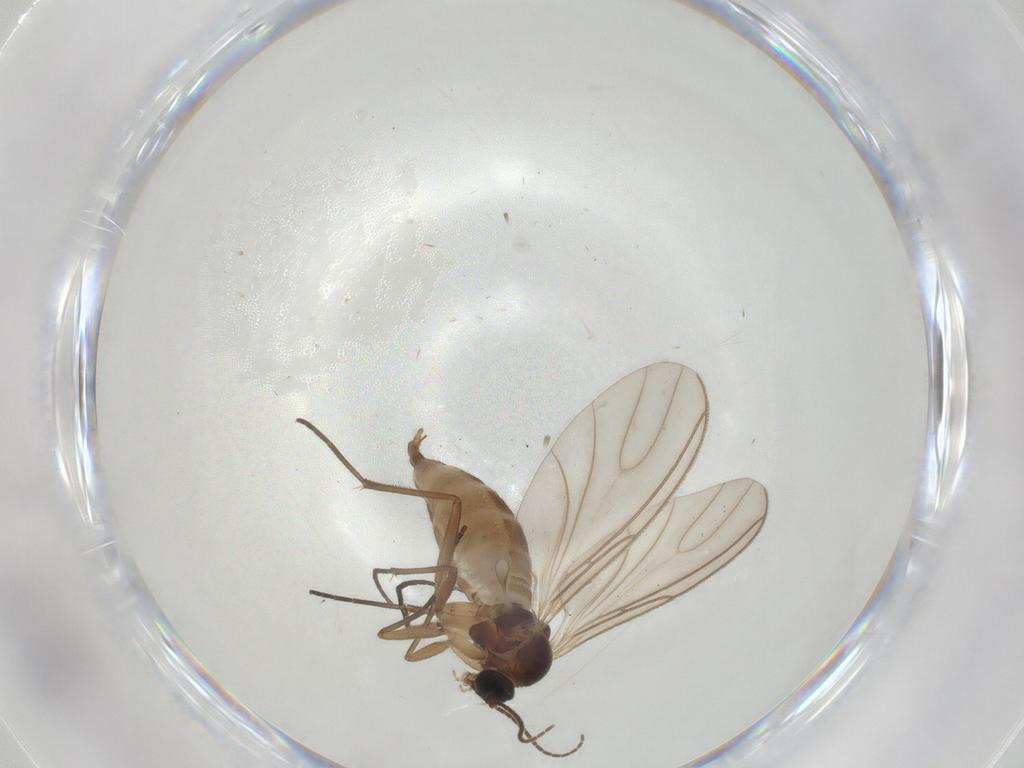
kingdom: Animalia
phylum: Arthropoda
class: Insecta
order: Diptera
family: Sciaridae
